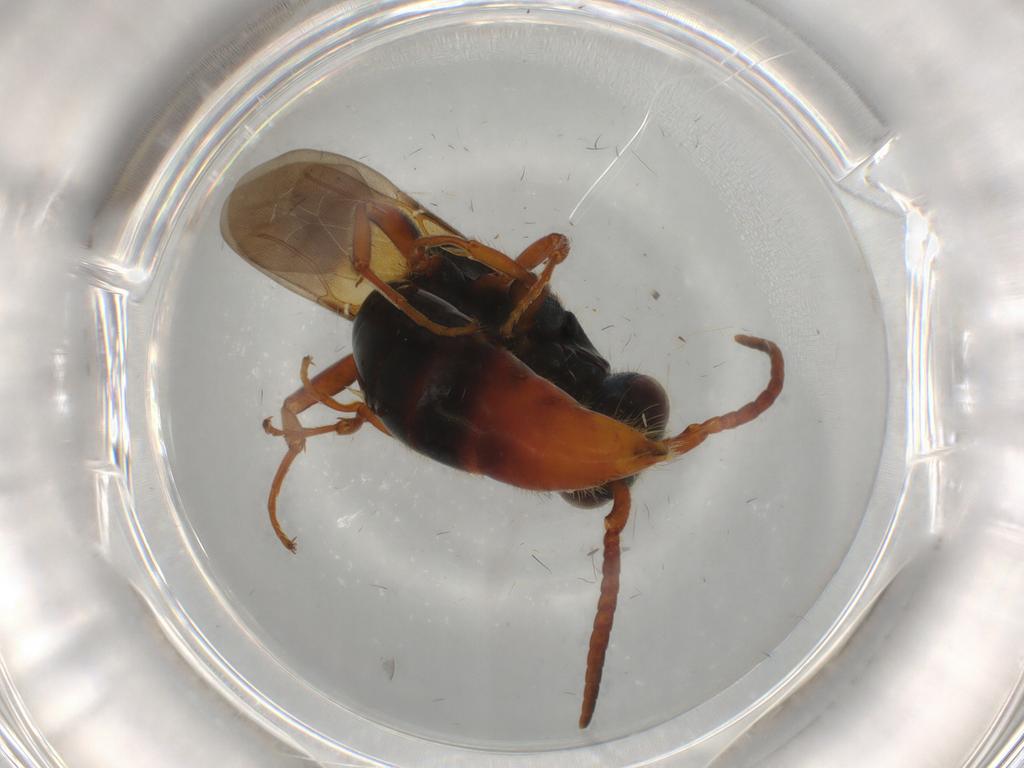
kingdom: Animalia
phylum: Arthropoda
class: Insecta
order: Hymenoptera
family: Bethylidae
